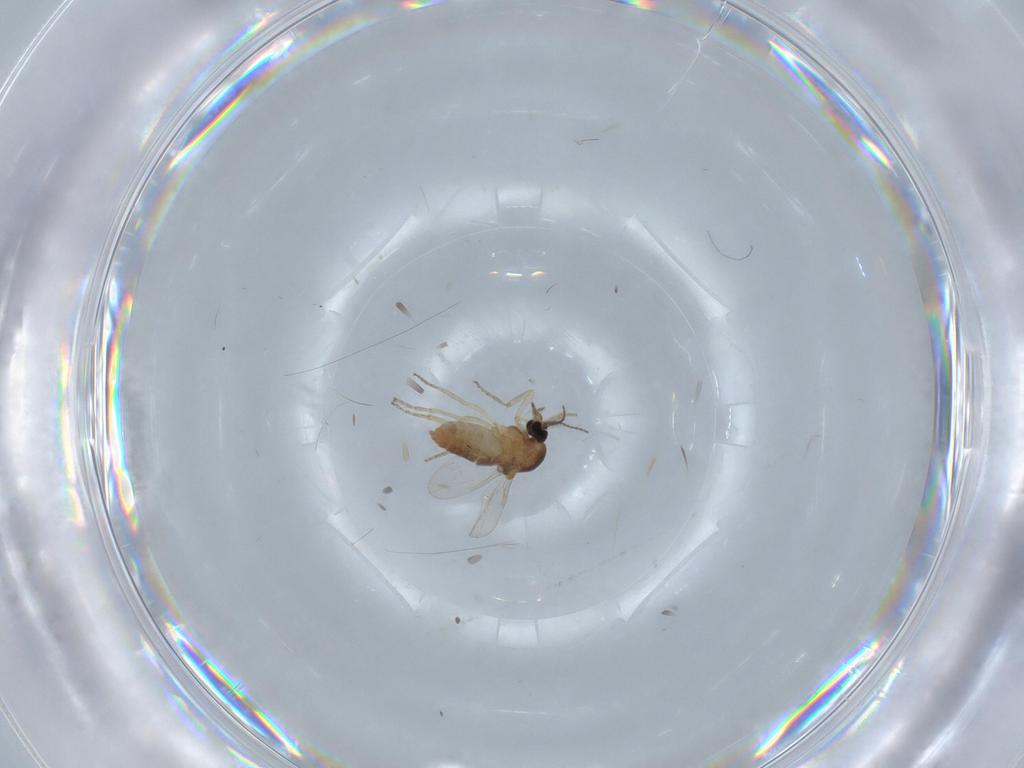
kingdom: Animalia
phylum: Arthropoda
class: Insecta
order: Diptera
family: Ceratopogonidae
